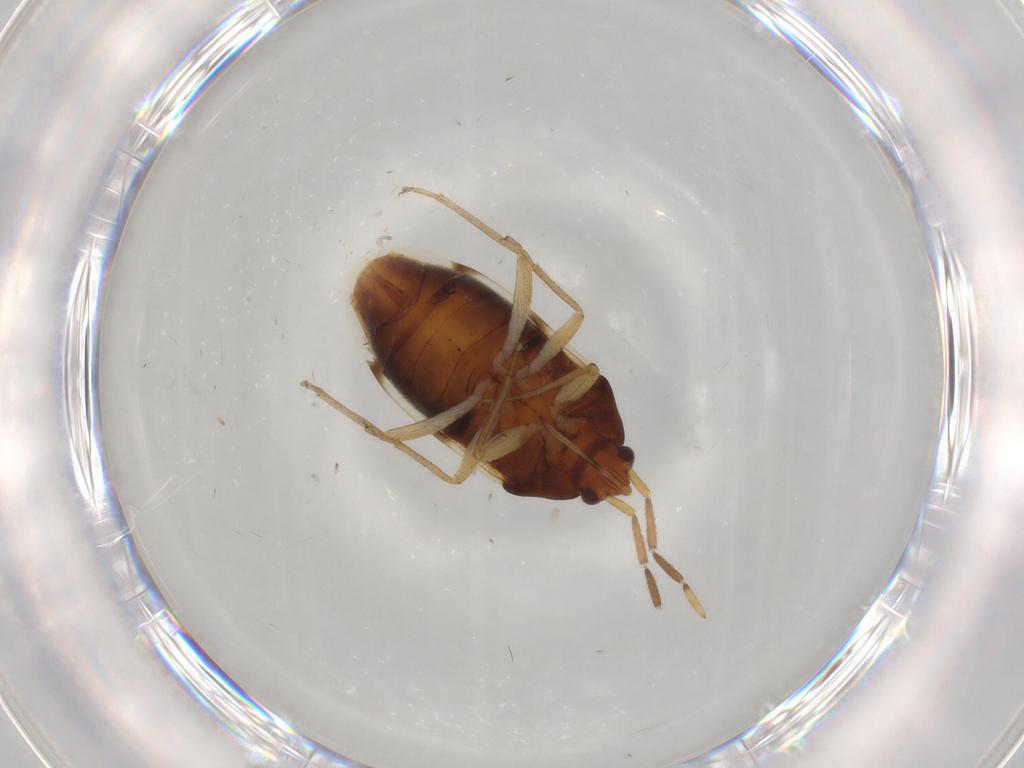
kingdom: Animalia
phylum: Arthropoda
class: Insecta
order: Hemiptera
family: Rhyparochromidae
